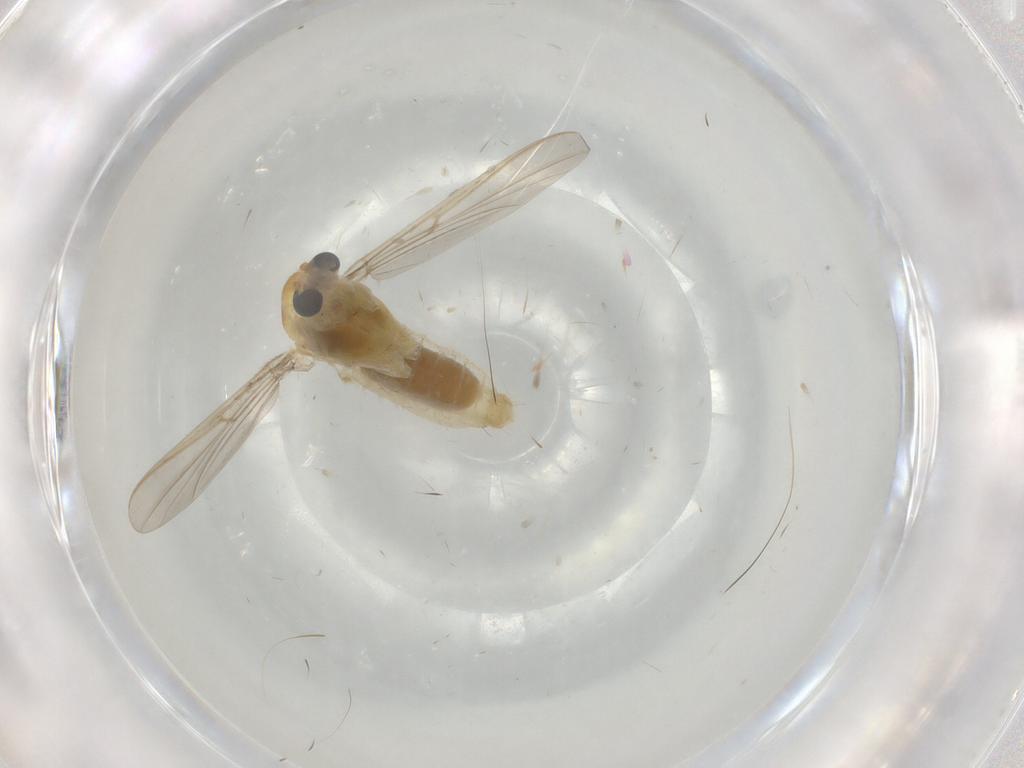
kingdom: Animalia
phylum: Arthropoda
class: Insecta
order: Diptera
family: Chironomidae
